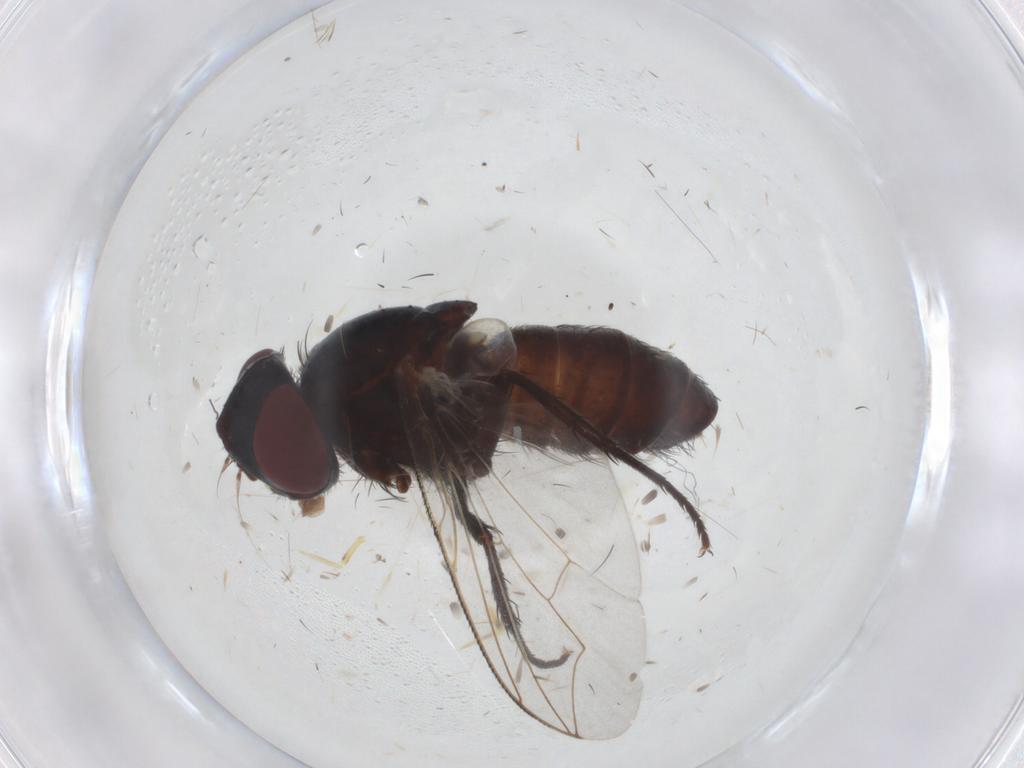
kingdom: Animalia
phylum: Arthropoda
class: Insecta
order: Diptera
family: Sarcophagidae
